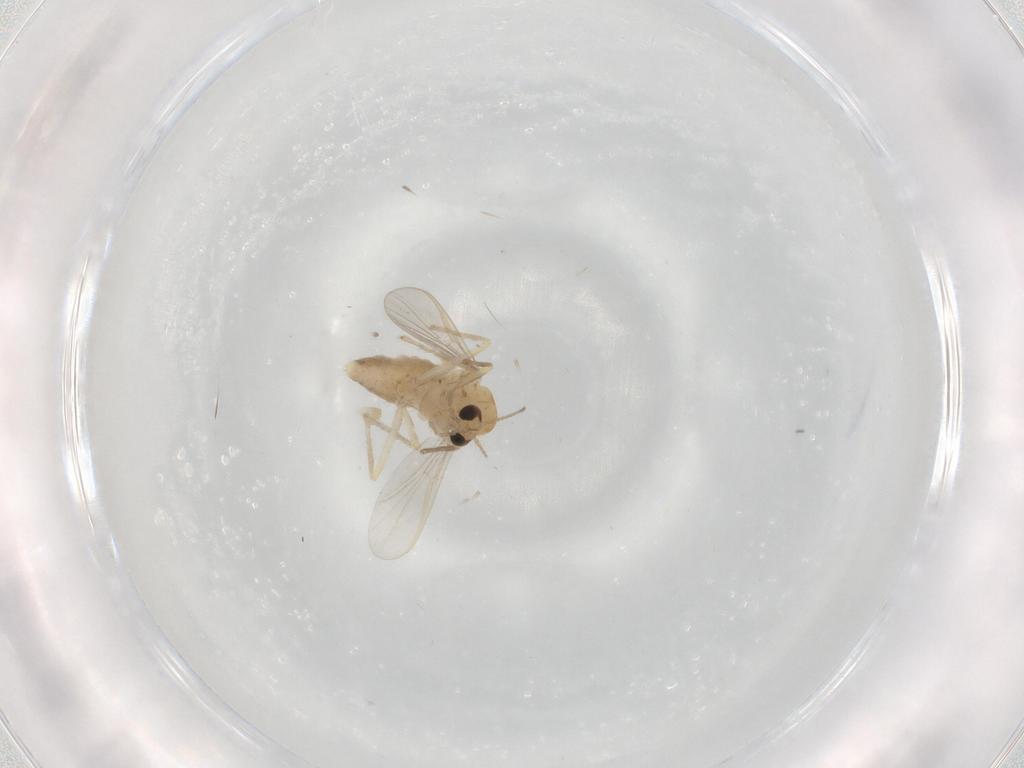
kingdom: Animalia
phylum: Arthropoda
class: Insecta
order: Diptera
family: Chironomidae
